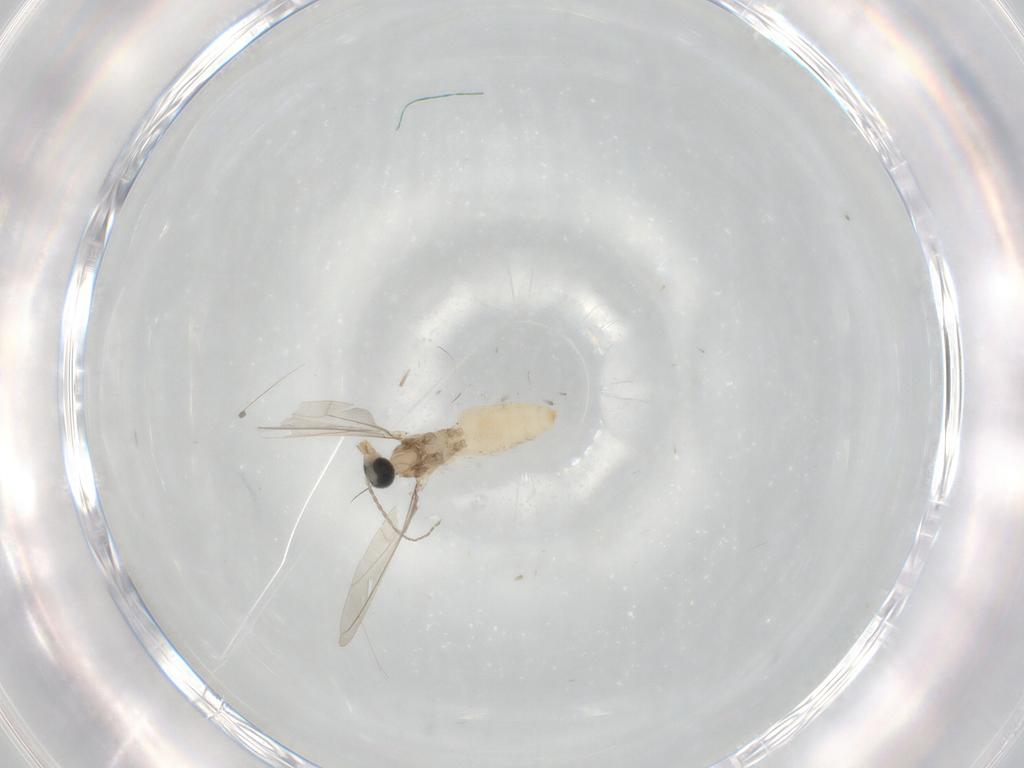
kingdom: Animalia
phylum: Arthropoda
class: Insecta
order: Diptera
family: Cecidomyiidae
